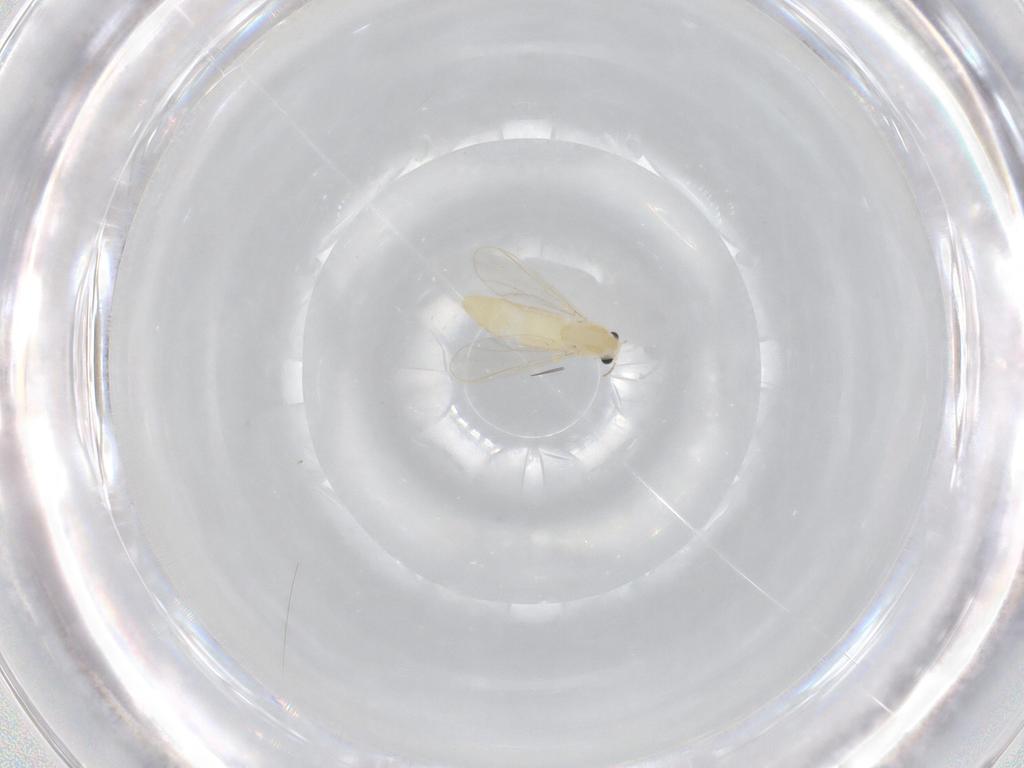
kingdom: Animalia
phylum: Arthropoda
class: Insecta
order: Diptera
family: Chironomidae
